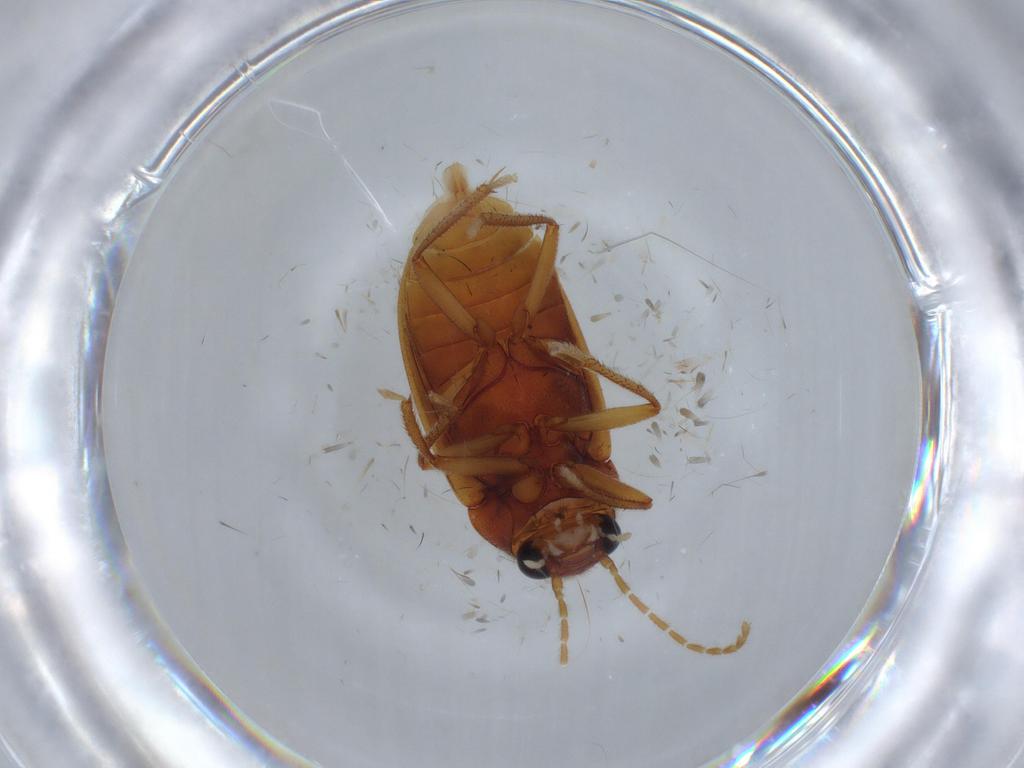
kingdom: Animalia
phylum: Arthropoda
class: Insecta
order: Coleoptera
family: Ptilodactylidae
